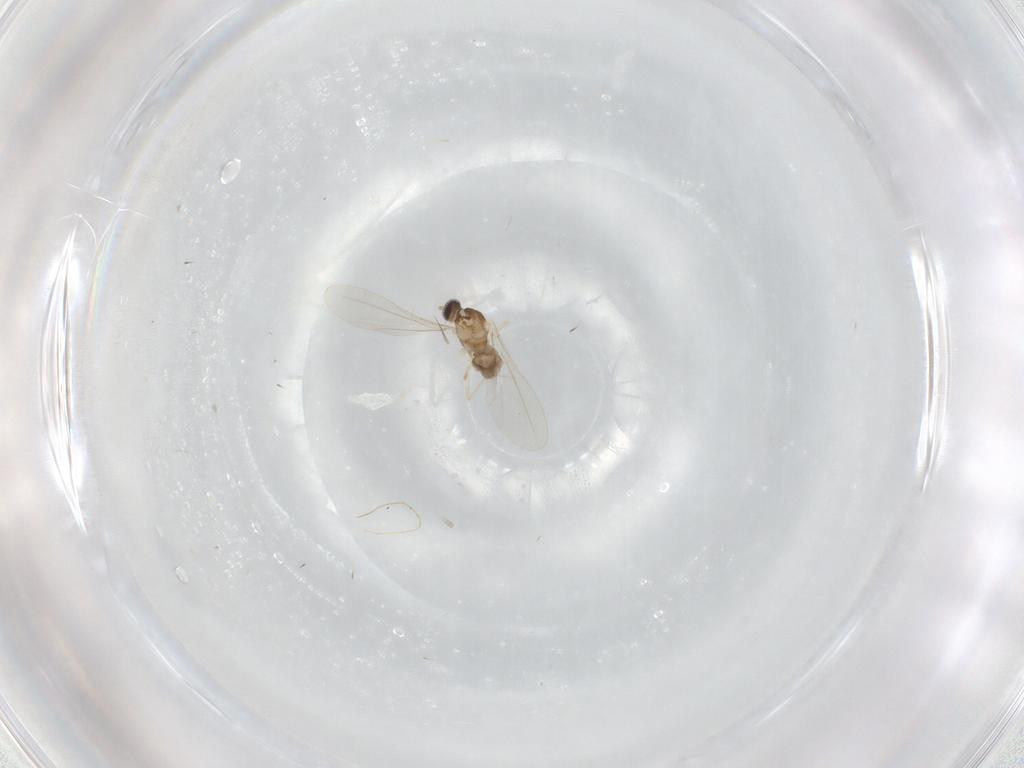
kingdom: Animalia
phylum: Arthropoda
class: Insecta
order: Diptera
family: Cecidomyiidae
